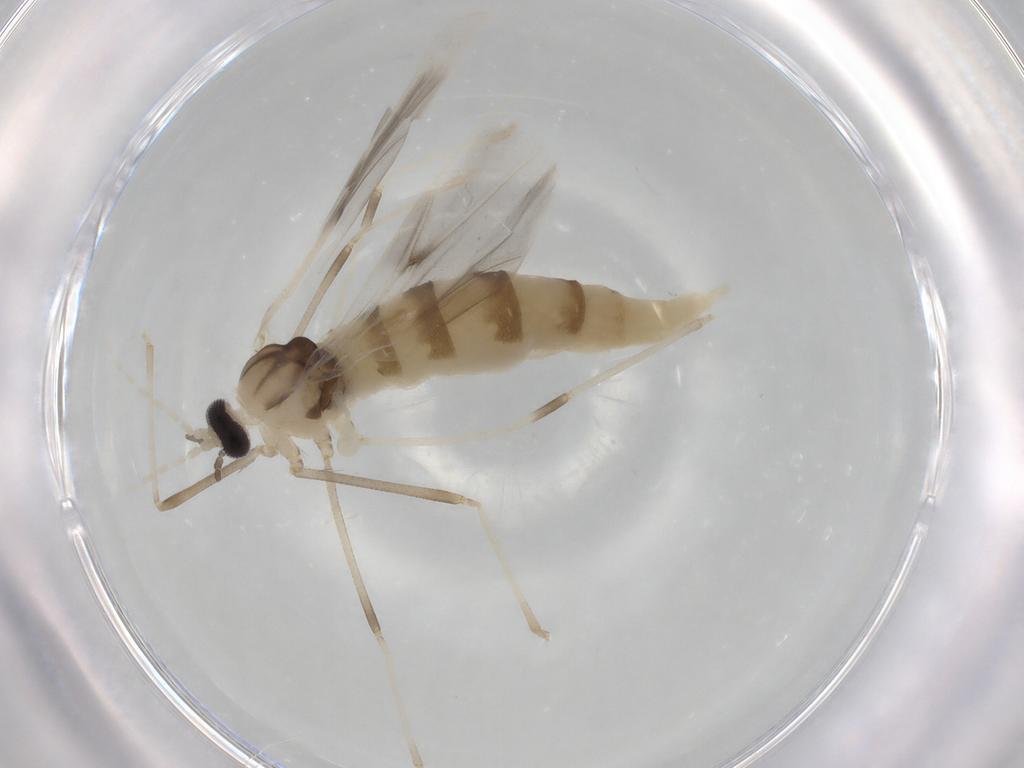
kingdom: Animalia
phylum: Arthropoda
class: Insecta
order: Diptera
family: Cecidomyiidae
